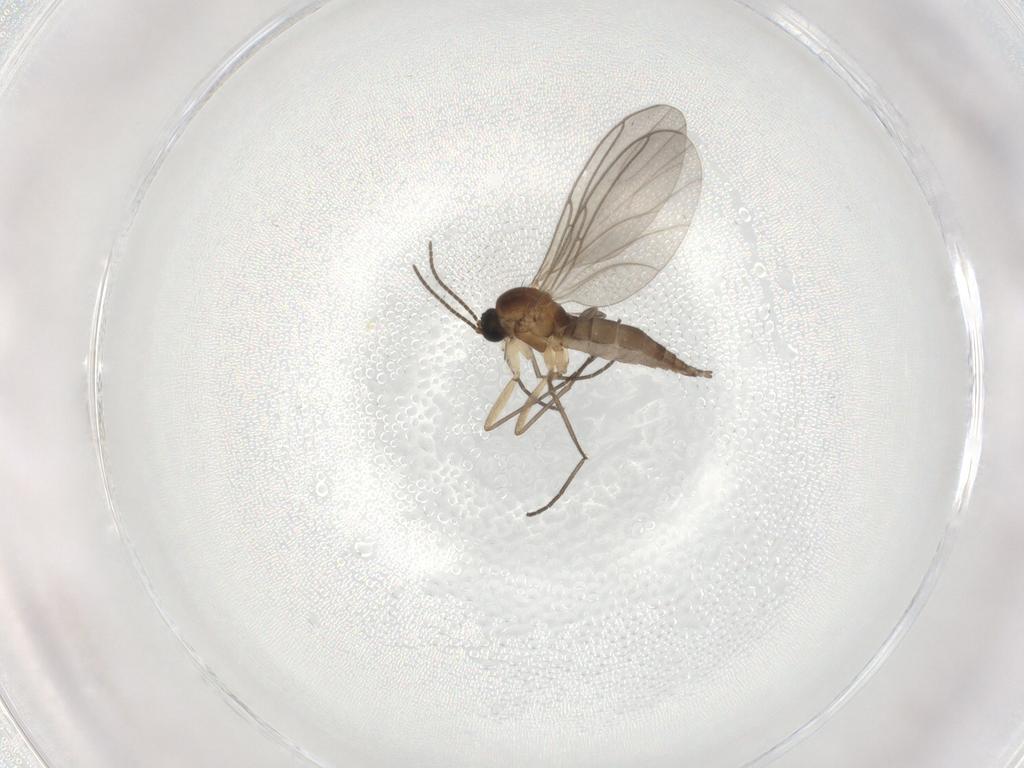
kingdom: Animalia
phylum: Arthropoda
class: Insecta
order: Diptera
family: Sciaridae
